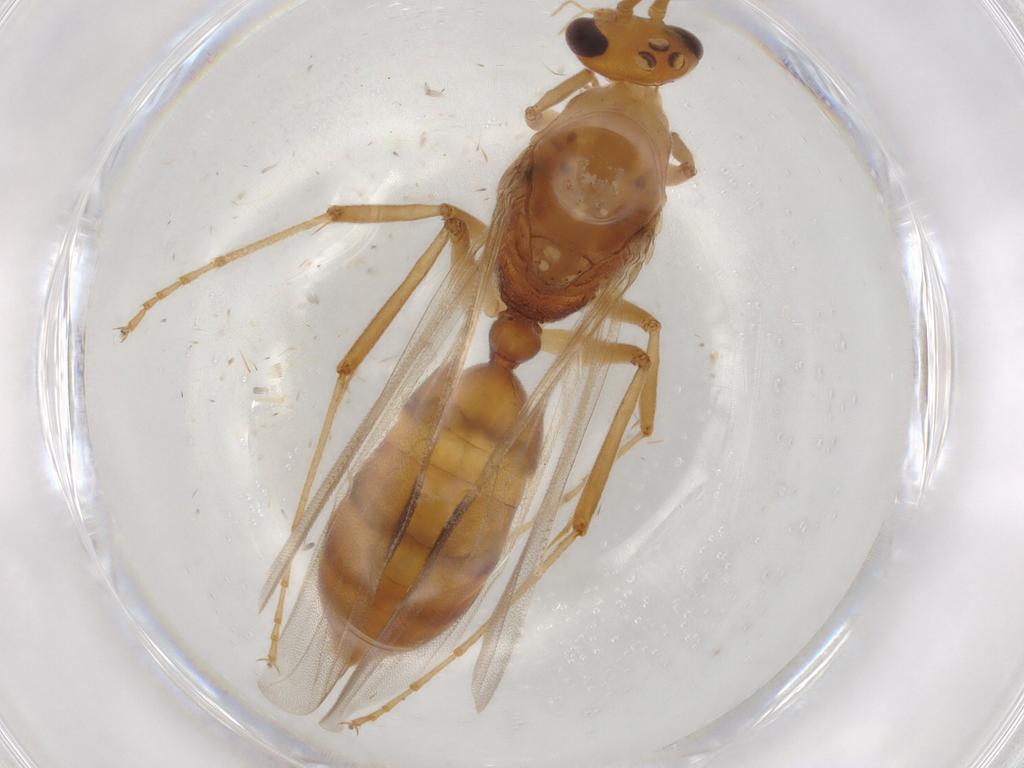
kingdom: Animalia
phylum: Arthropoda
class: Insecta
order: Hymenoptera
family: Formicidae
